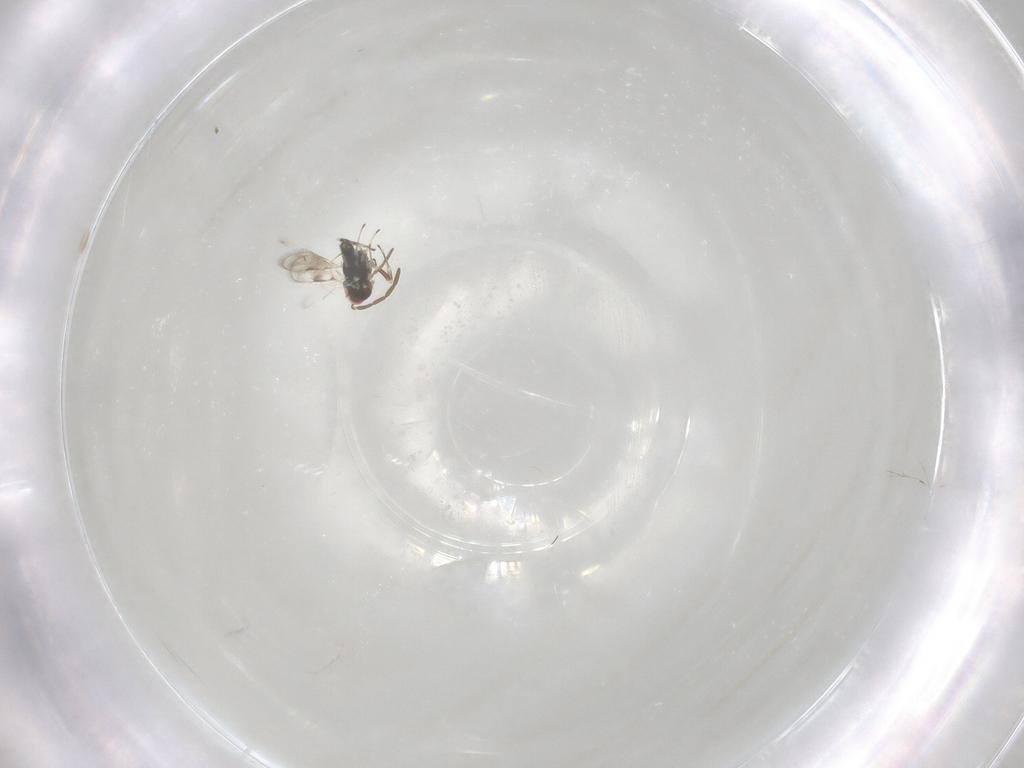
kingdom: Animalia
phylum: Arthropoda
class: Insecta
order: Hymenoptera
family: Azotidae
